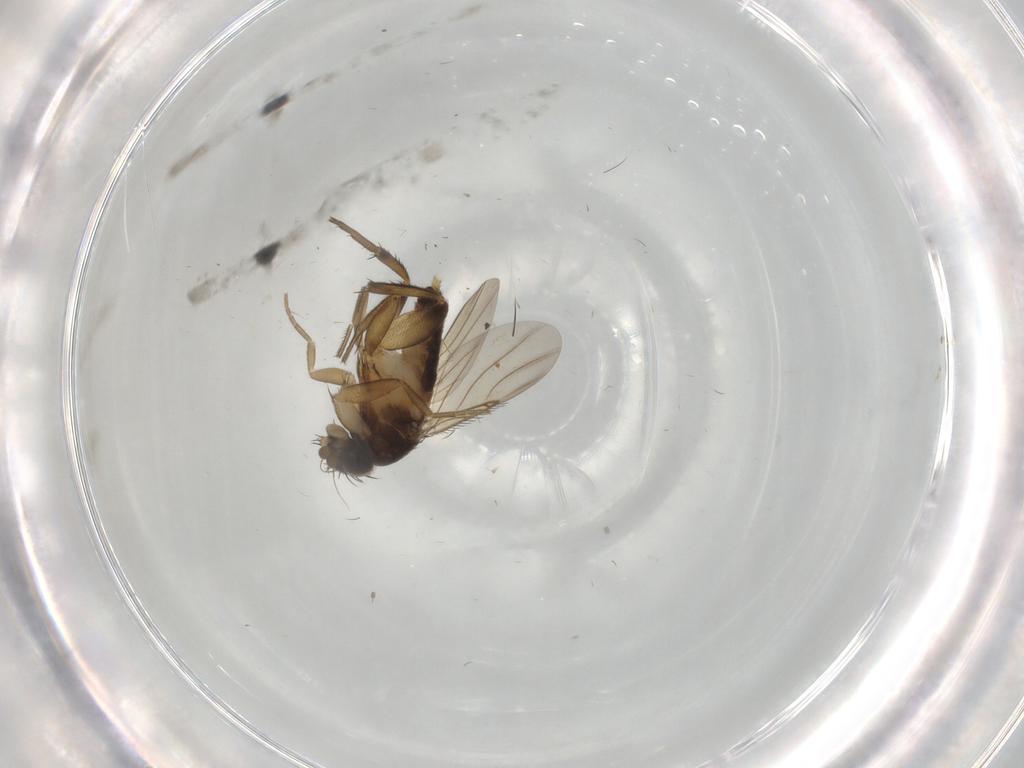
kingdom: Animalia
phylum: Arthropoda
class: Insecta
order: Diptera
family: Phoridae
